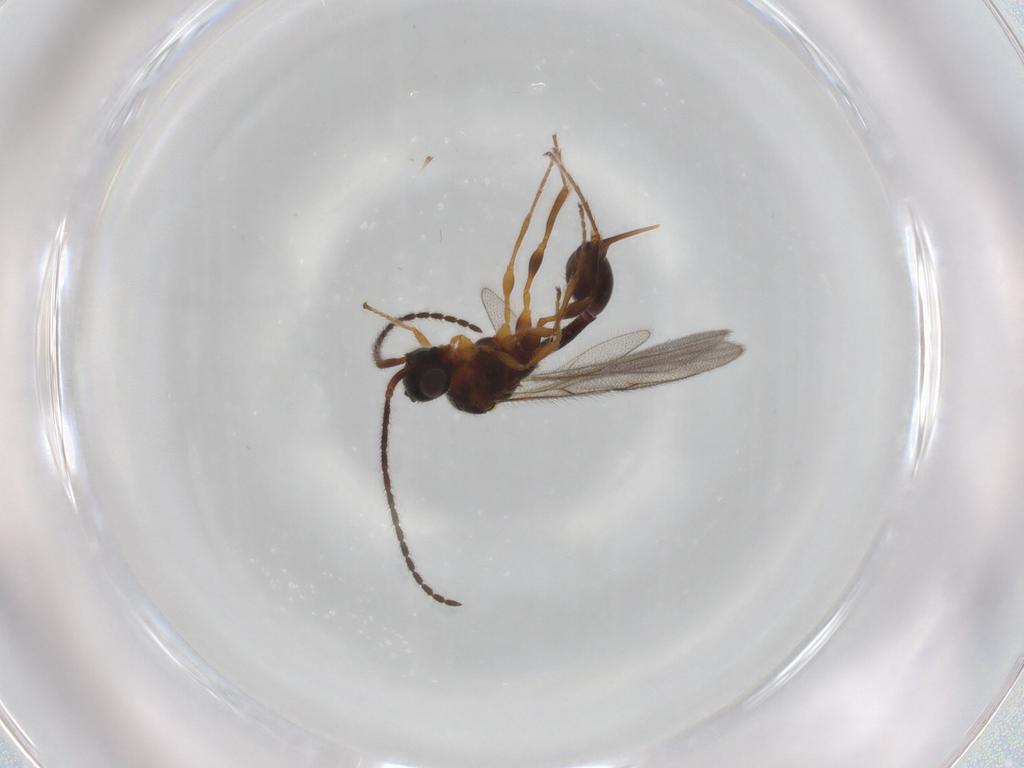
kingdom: Animalia
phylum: Arthropoda
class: Insecta
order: Hymenoptera
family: Diapriidae
